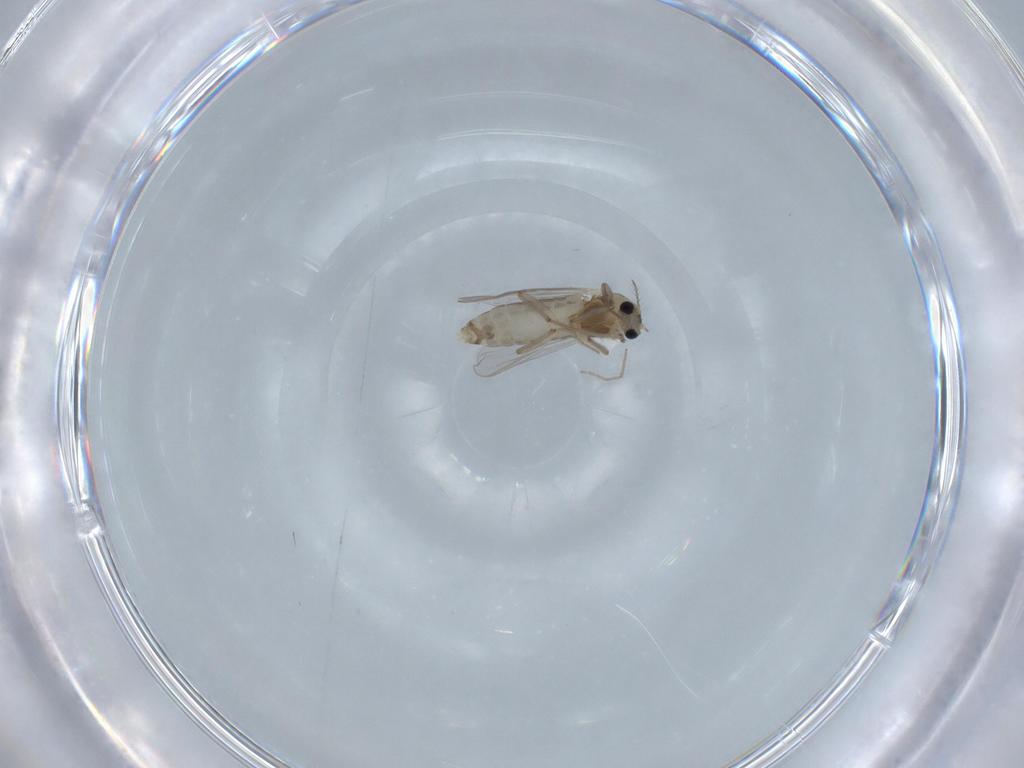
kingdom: Animalia
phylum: Arthropoda
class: Insecta
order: Diptera
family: Chironomidae
